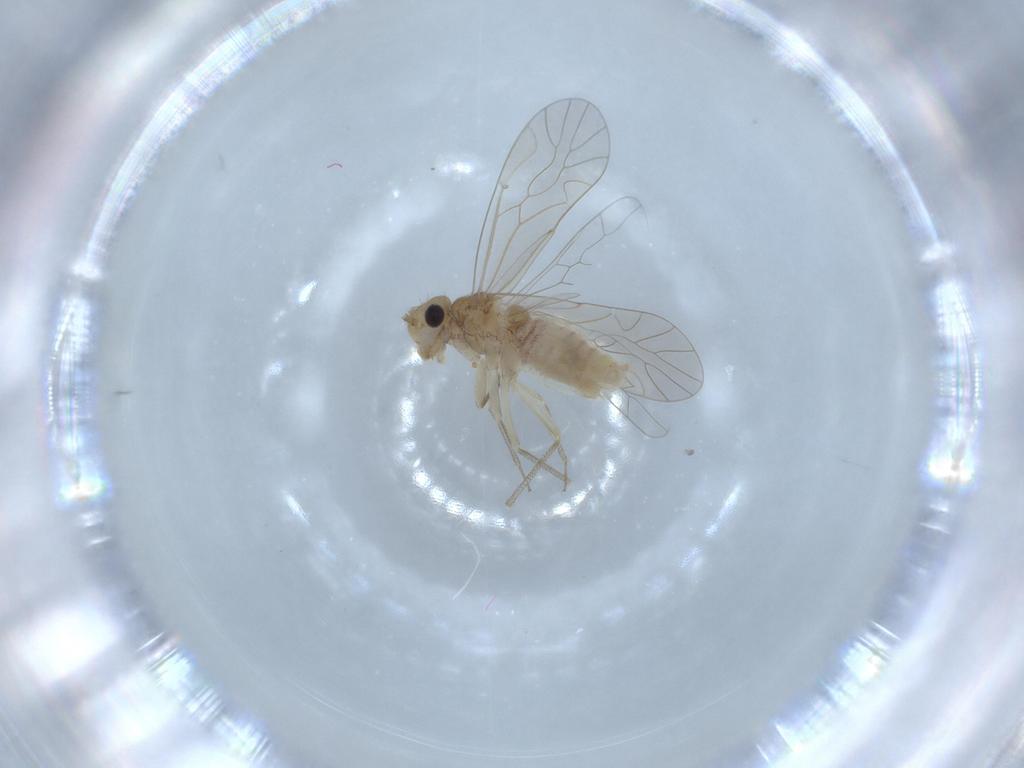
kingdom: Animalia
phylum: Arthropoda
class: Insecta
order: Psocodea
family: Caeciliusidae
